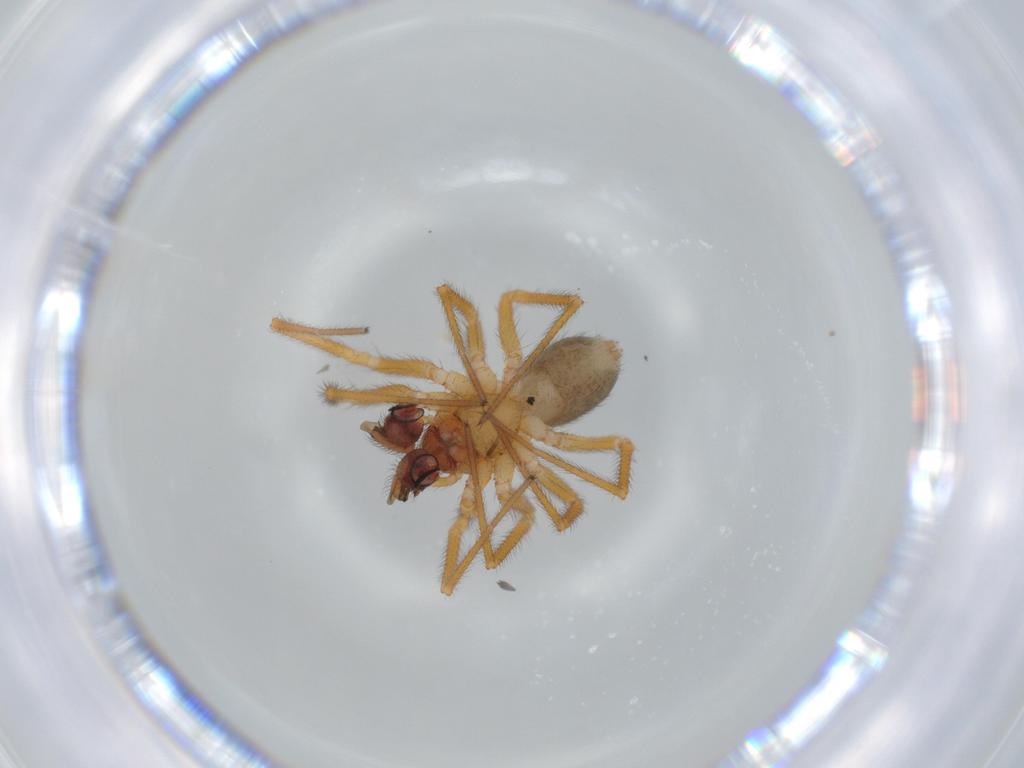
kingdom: Animalia
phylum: Arthropoda
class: Arachnida
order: Araneae
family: Linyphiidae
